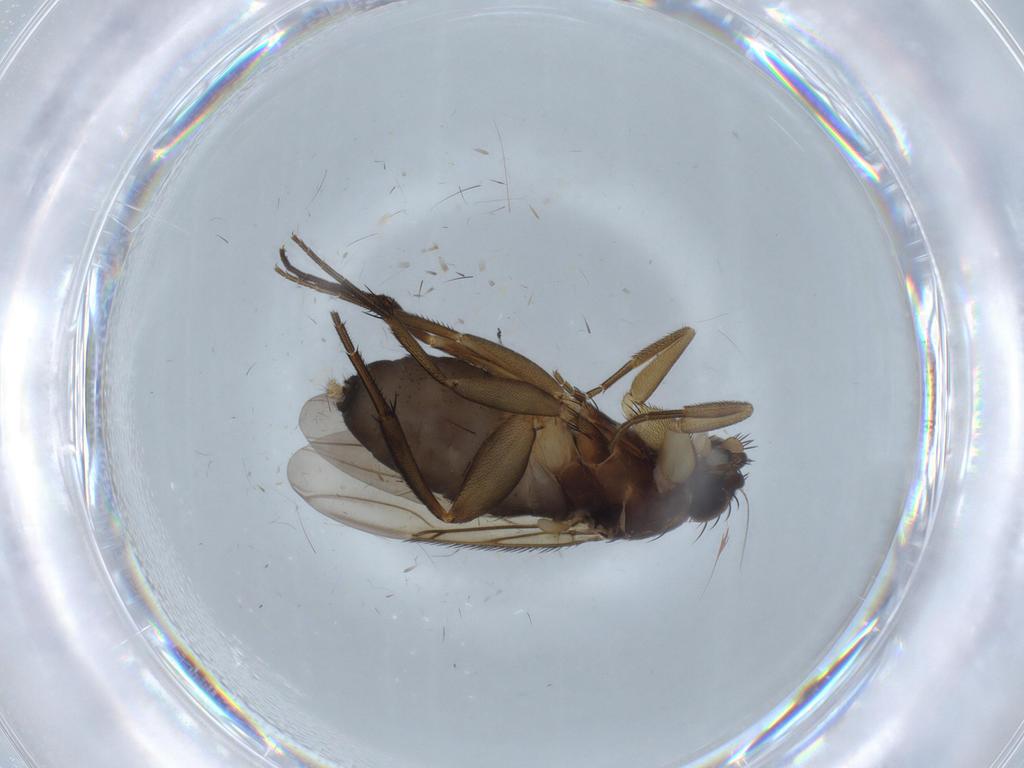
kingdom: Animalia
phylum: Arthropoda
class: Insecta
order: Diptera
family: Phoridae
